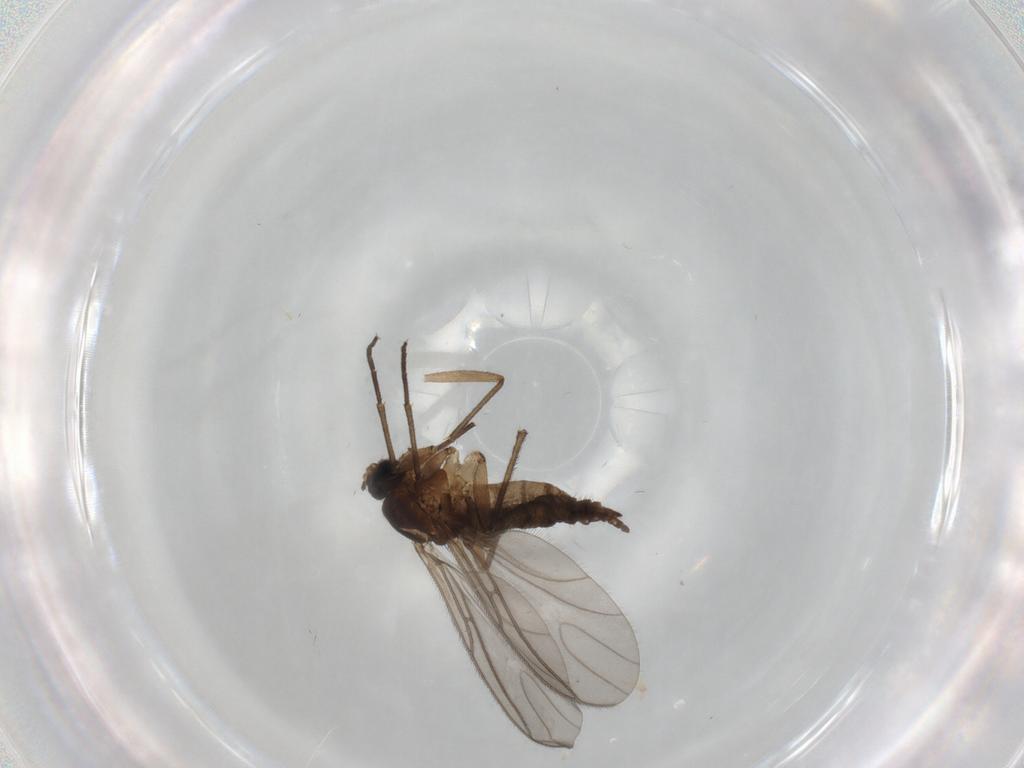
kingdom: Animalia
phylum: Arthropoda
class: Insecta
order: Diptera
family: Sciaridae
